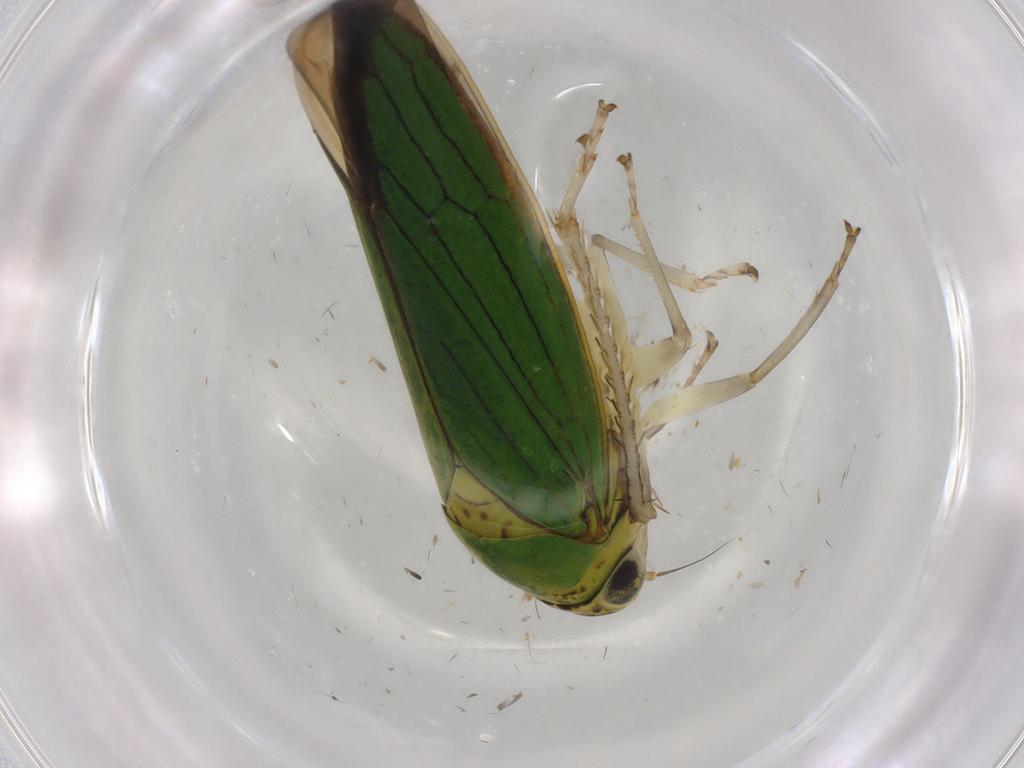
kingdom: Animalia
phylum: Arthropoda
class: Insecta
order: Hemiptera
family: Cicadellidae
